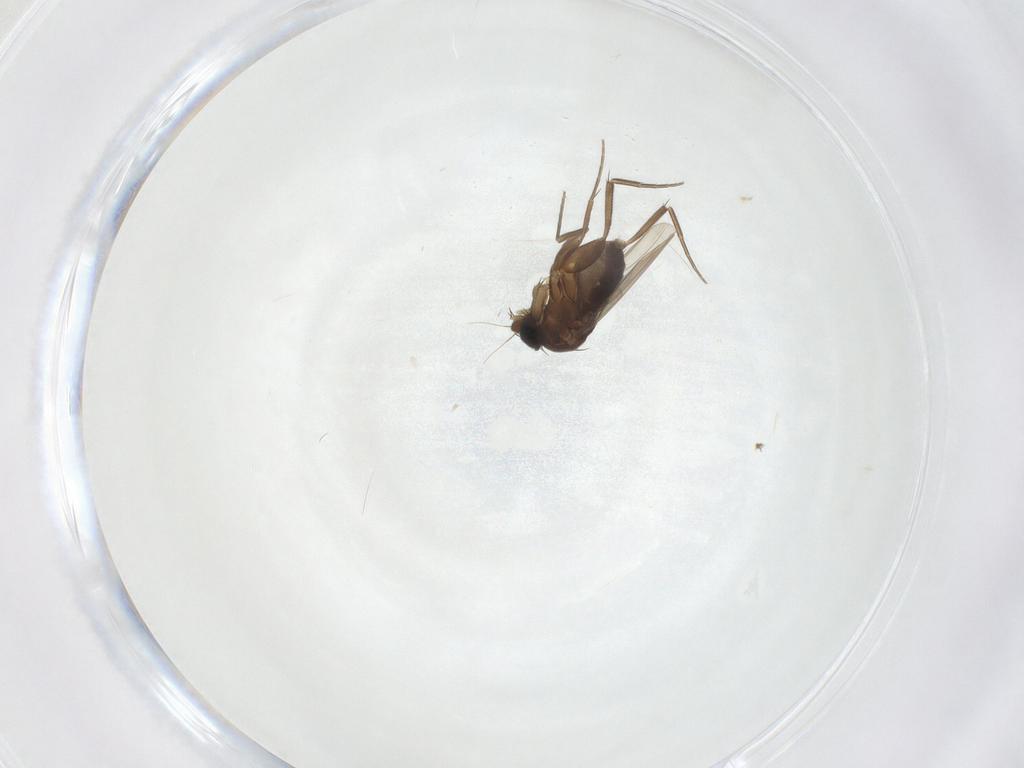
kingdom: Animalia
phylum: Arthropoda
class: Insecta
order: Diptera
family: Phoridae
